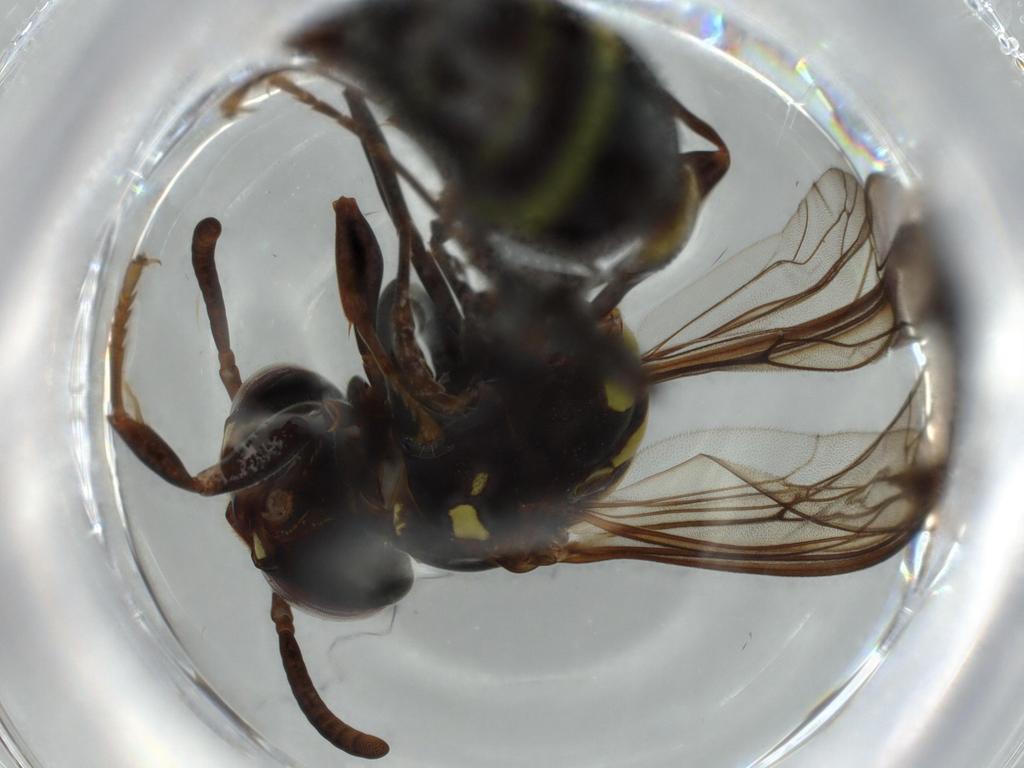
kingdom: Animalia
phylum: Arthropoda
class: Insecta
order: Hymenoptera
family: Vespidae
